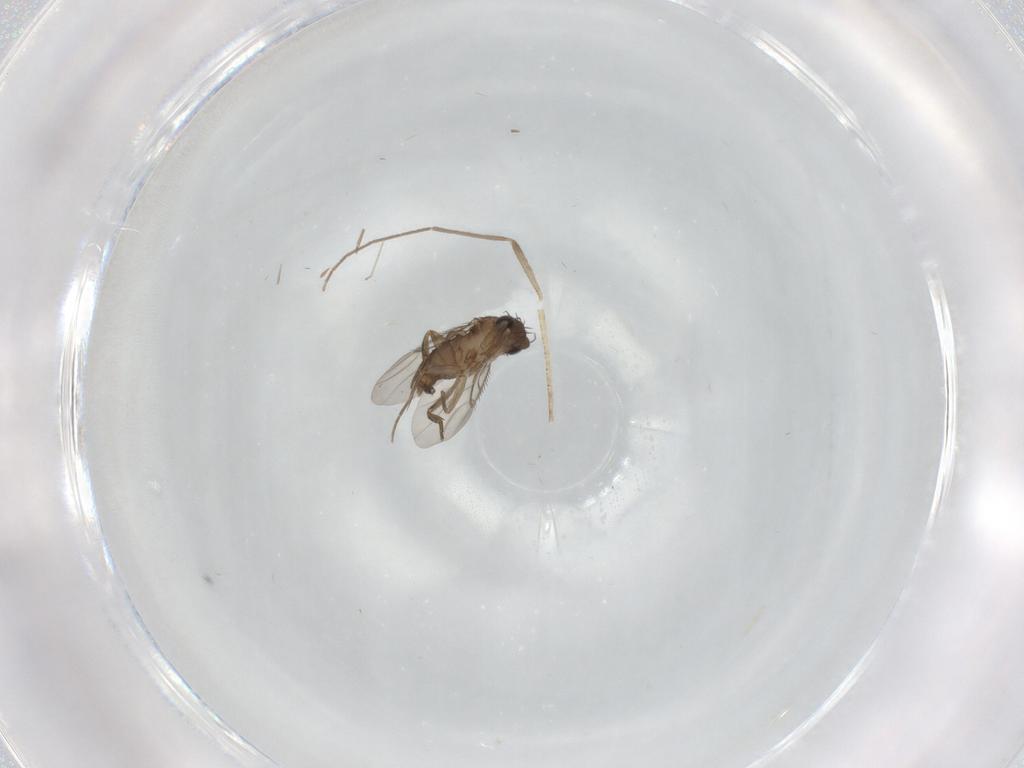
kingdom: Animalia
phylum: Arthropoda
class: Insecta
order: Diptera
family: Phoridae
